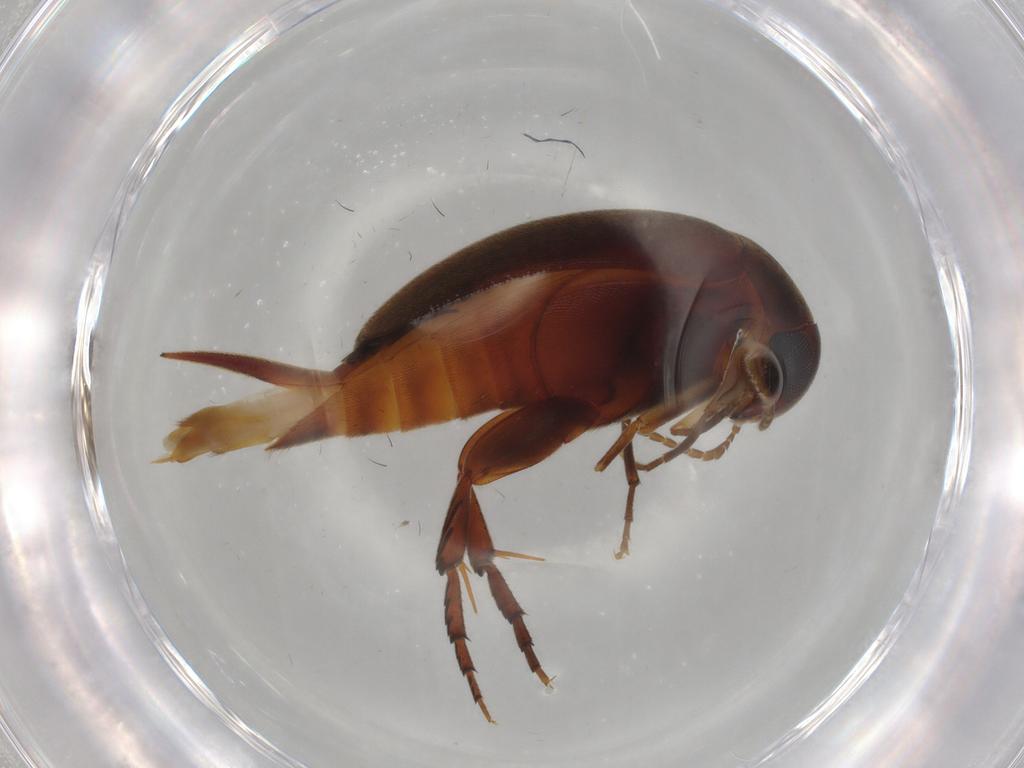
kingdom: Animalia
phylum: Arthropoda
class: Insecta
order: Coleoptera
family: Mordellidae
